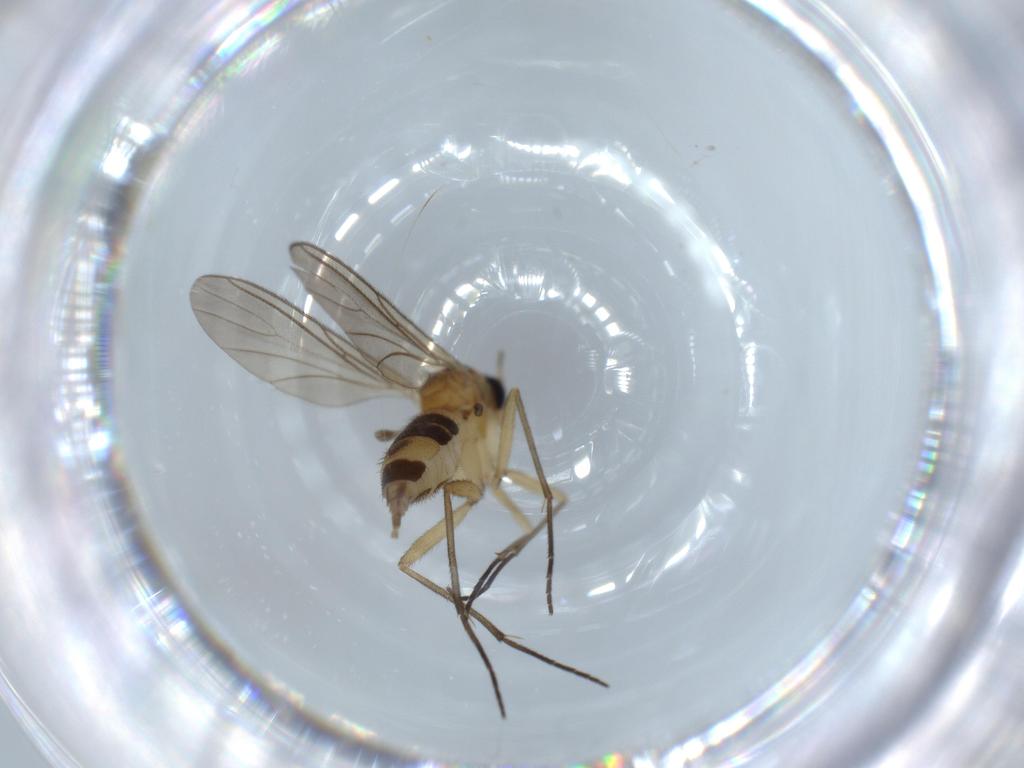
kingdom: Animalia
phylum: Arthropoda
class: Insecta
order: Diptera
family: Sciaridae
